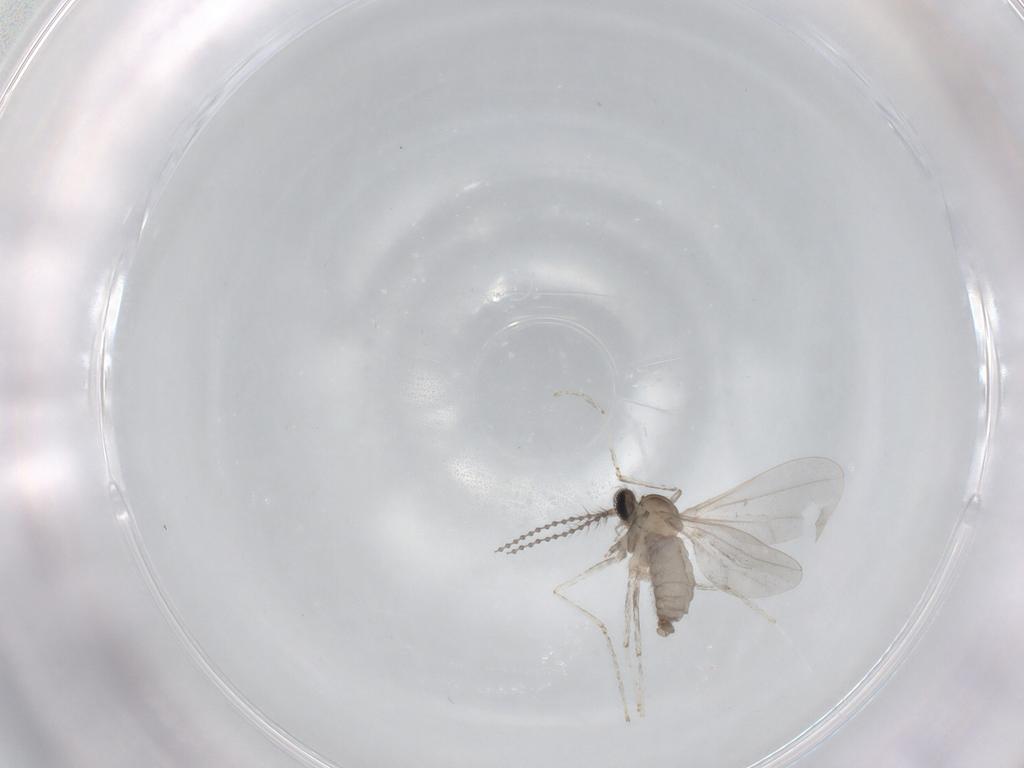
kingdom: Animalia
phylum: Arthropoda
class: Insecta
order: Diptera
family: Cecidomyiidae
